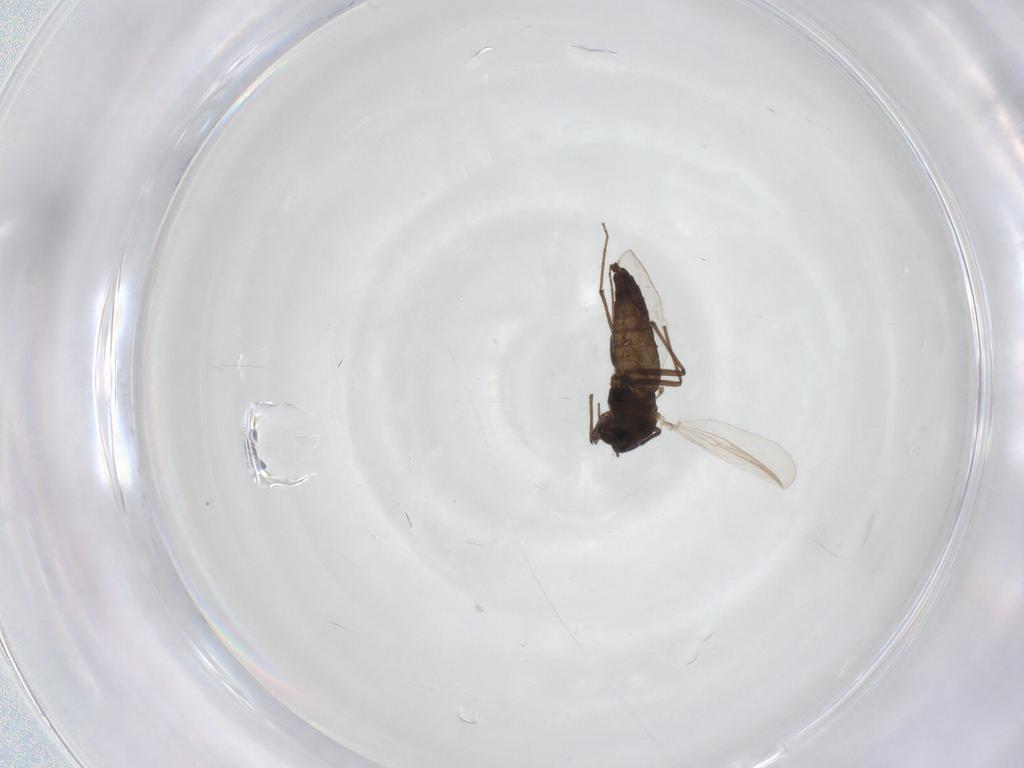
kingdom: Animalia
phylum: Arthropoda
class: Insecta
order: Diptera
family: Chironomidae
